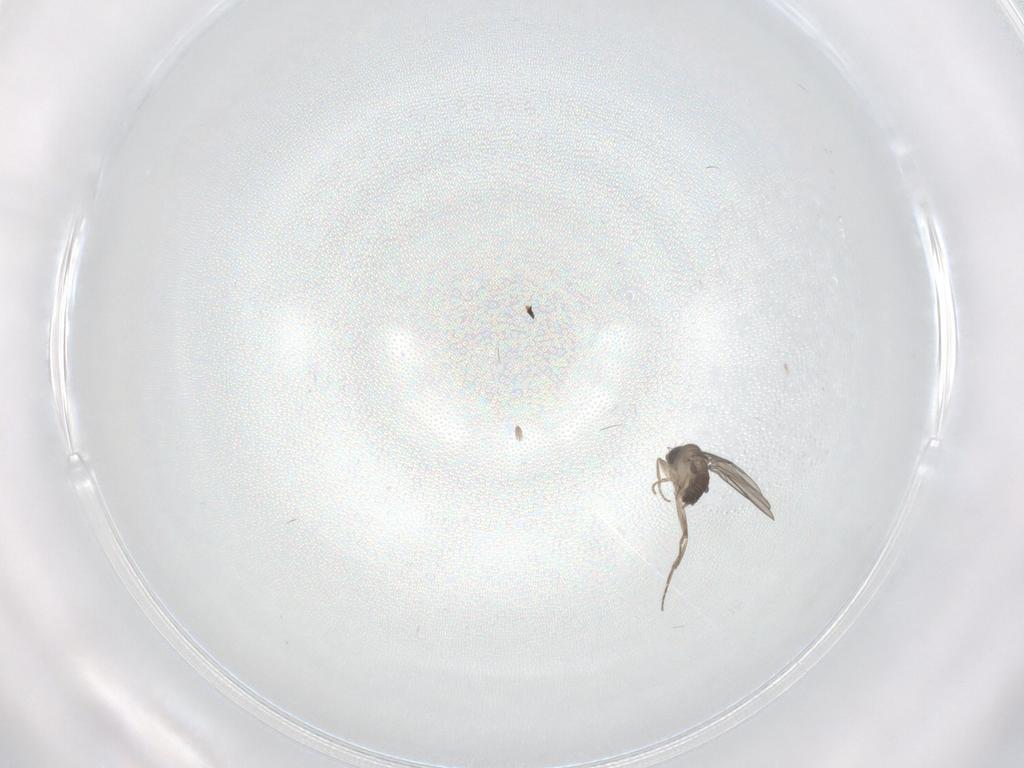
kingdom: Animalia
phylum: Arthropoda
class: Insecta
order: Diptera
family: Phoridae
